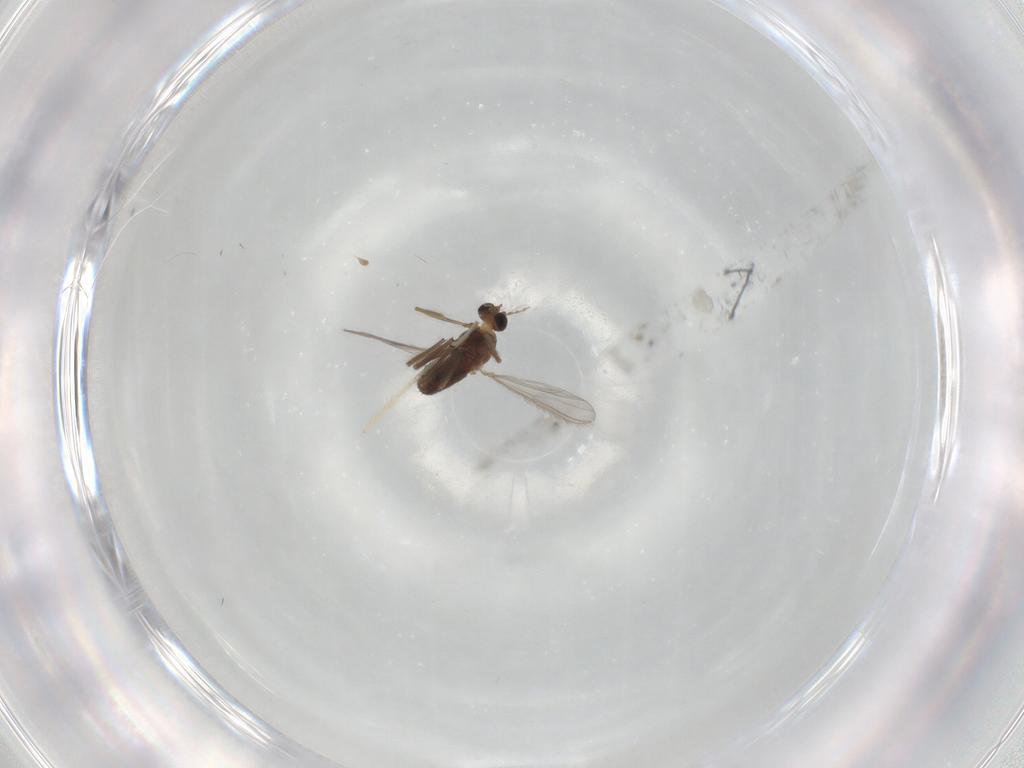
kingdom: Animalia
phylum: Arthropoda
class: Insecta
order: Diptera
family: Chironomidae
